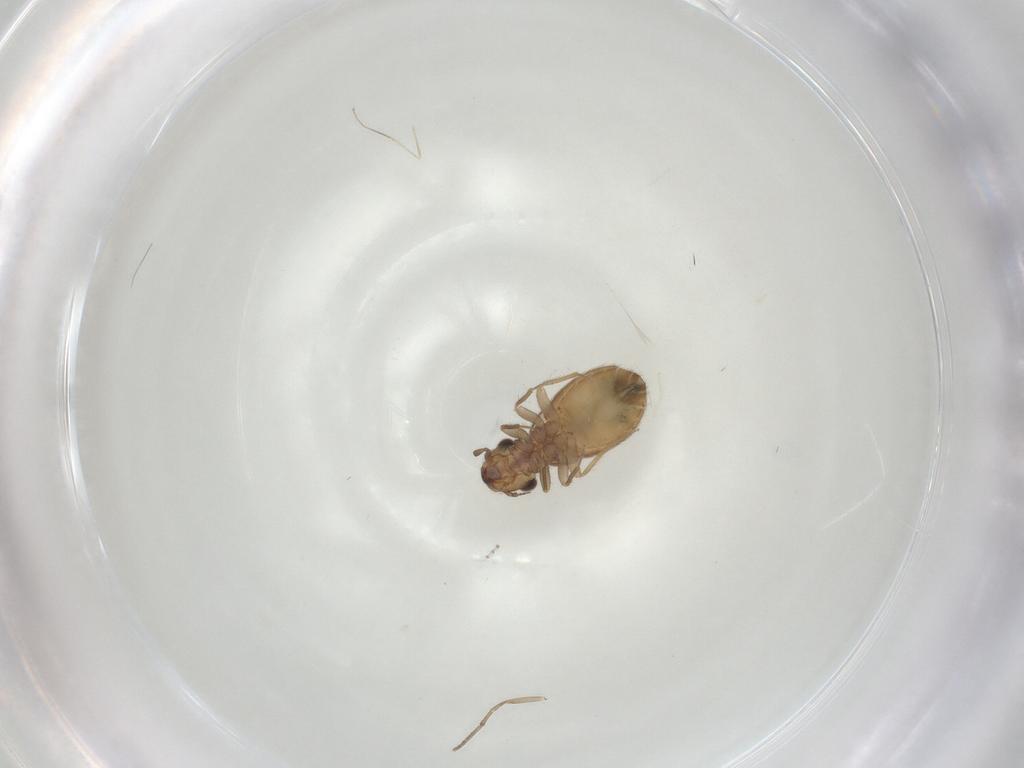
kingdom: Animalia
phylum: Arthropoda
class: Insecta
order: Psocodea
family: Trogiidae
